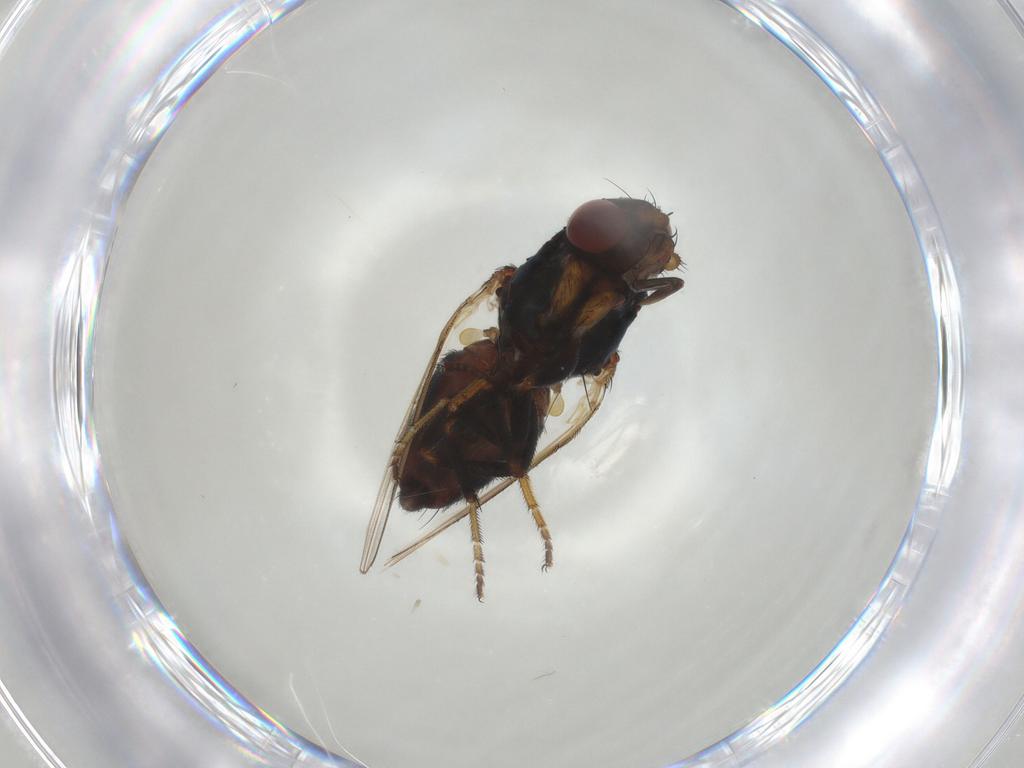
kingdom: Animalia
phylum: Arthropoda
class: Insecta
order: Diptera
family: Milichiidae
